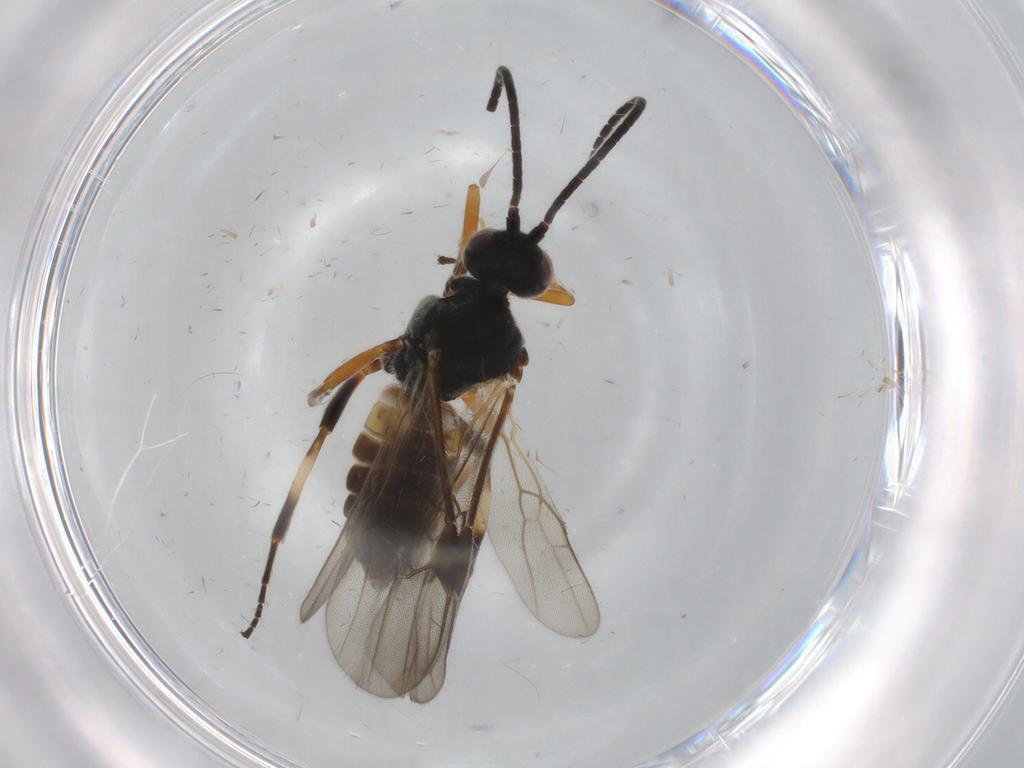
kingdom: Animalia
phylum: Arthropoda
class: Insecta
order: Hymenoptera
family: Braconidae
